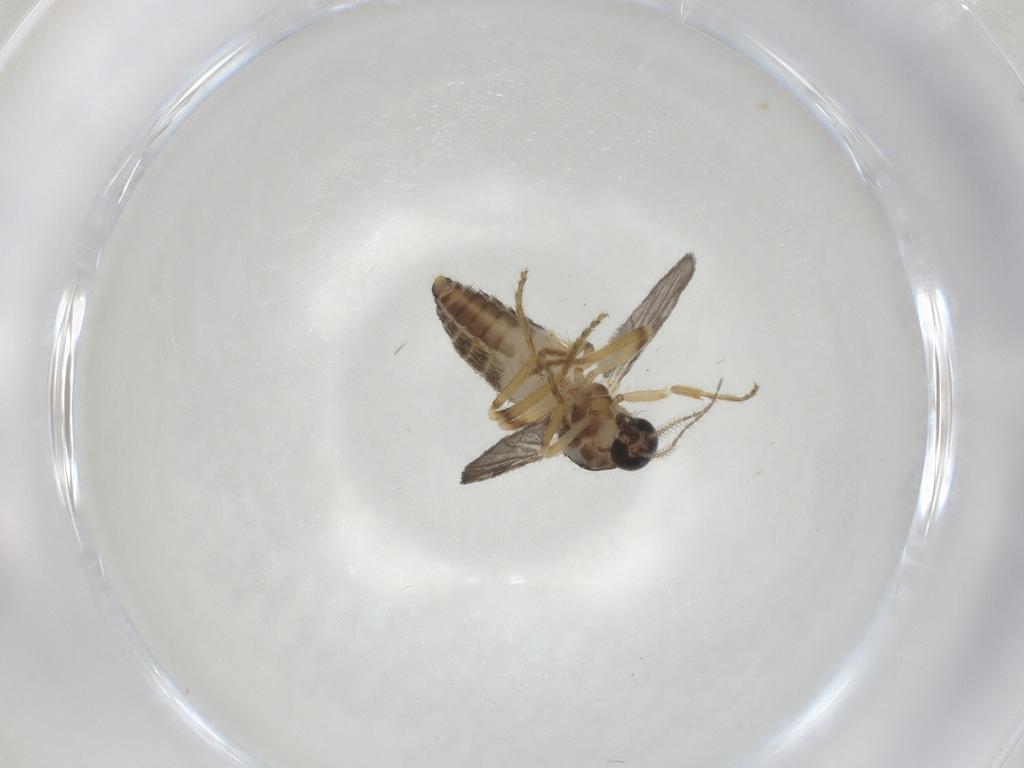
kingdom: Animalia
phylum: Arthropoda
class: Insecta
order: Diptera
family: Ceratopogonidae
